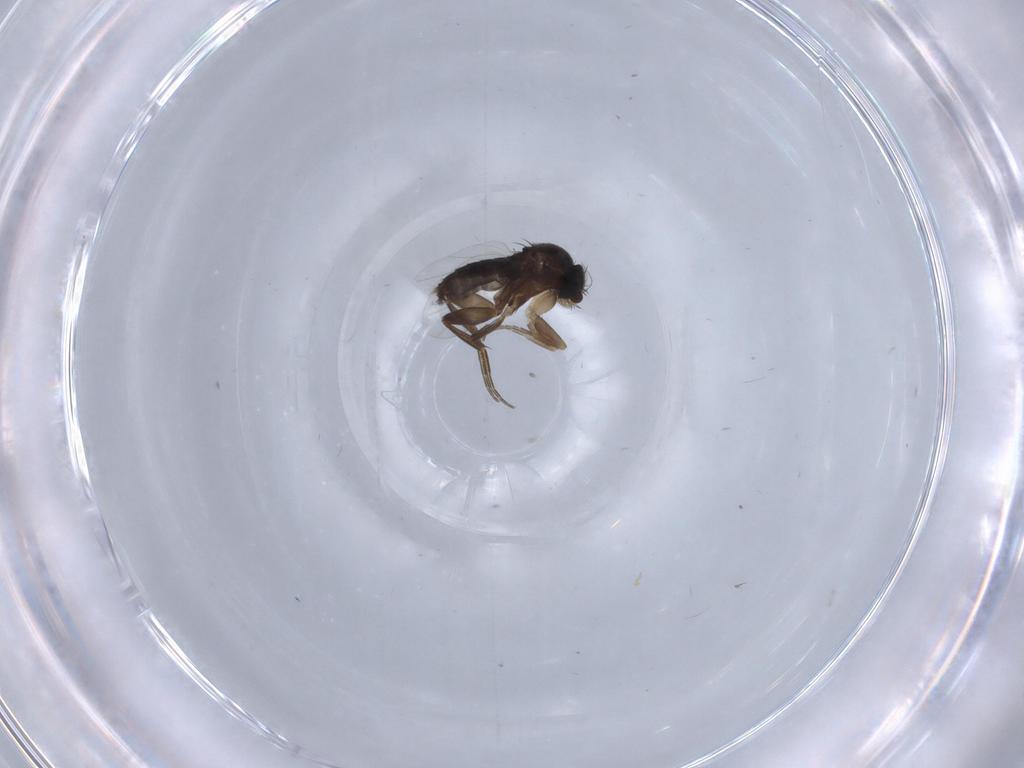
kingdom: Animalia
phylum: Arthropoda
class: Insecta
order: Diptera
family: Phoridae
